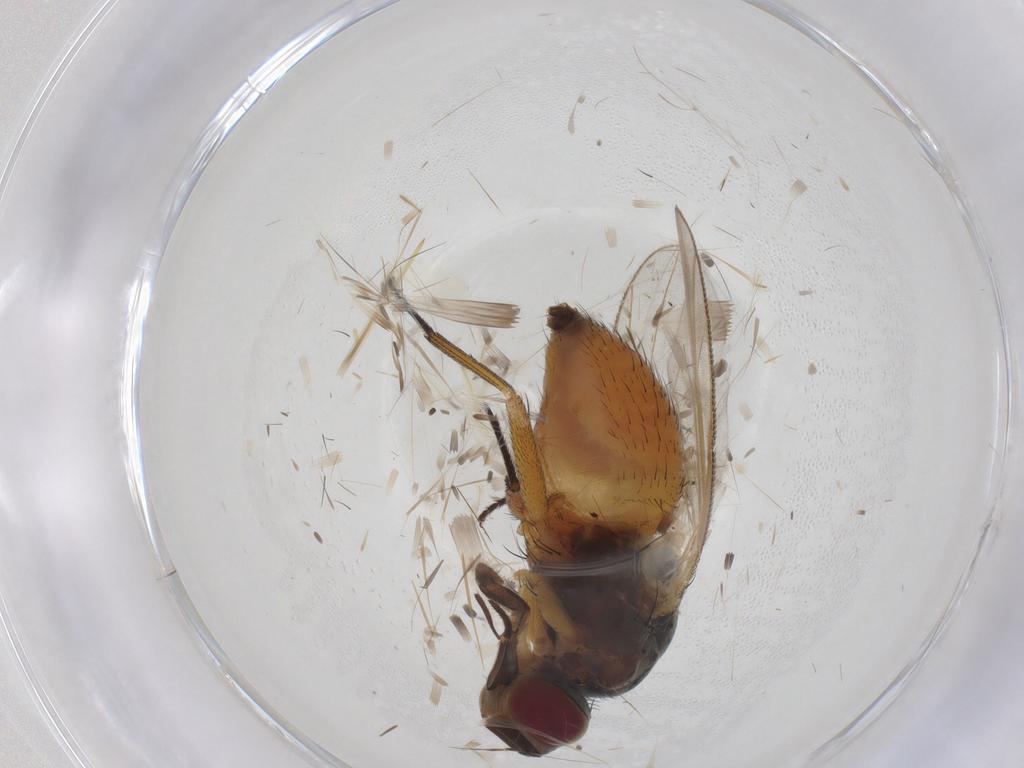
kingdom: Animalia
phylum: Arthropoda
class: Insecta
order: Diptera
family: Muscidae
